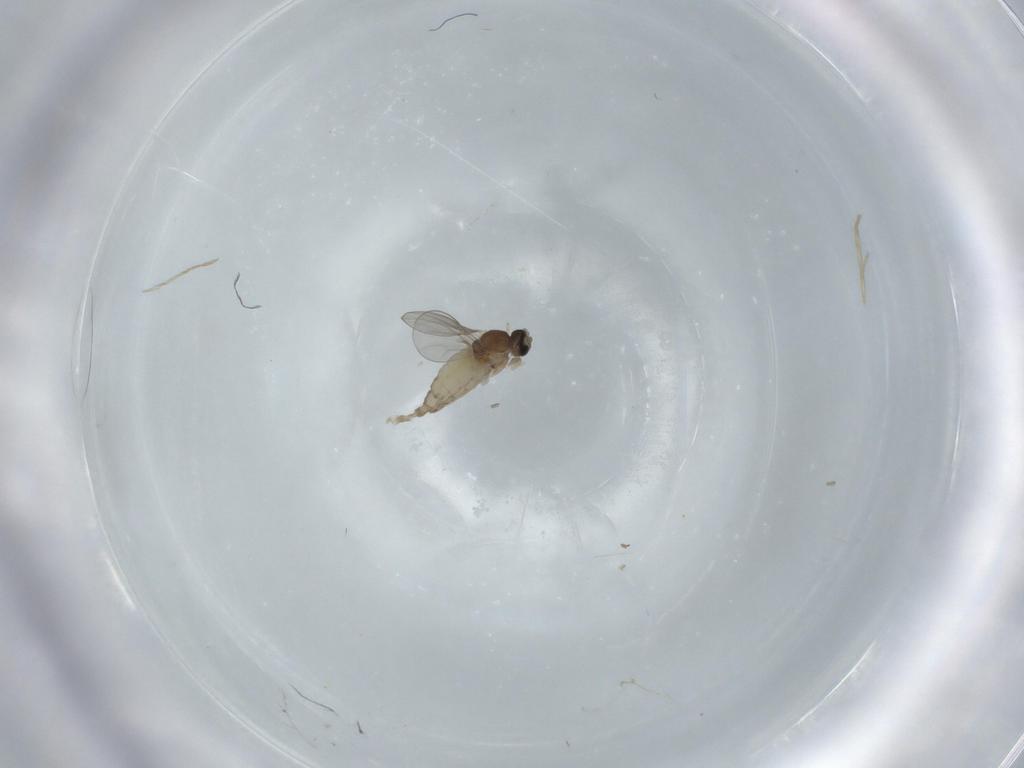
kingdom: Animalia
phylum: Arthropoda
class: Insecta
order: Diptera
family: Cecidomyiidae
